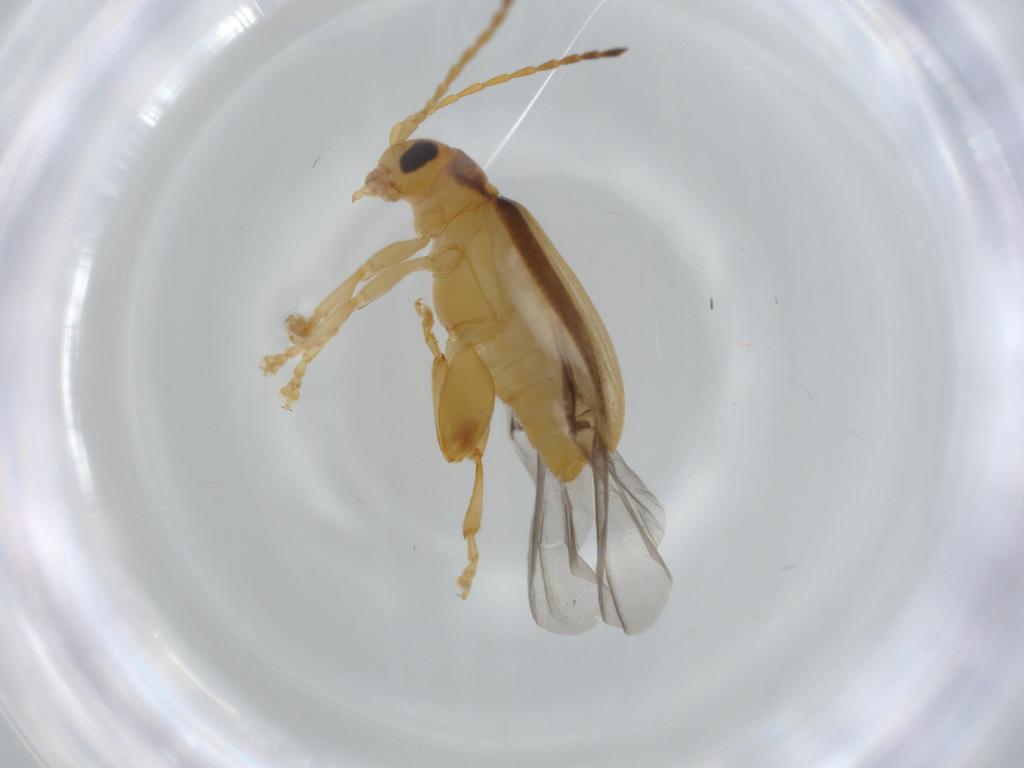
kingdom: Animalia
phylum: Arthropoda
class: Insecta
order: Coleoptera
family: Chrysomelidae
